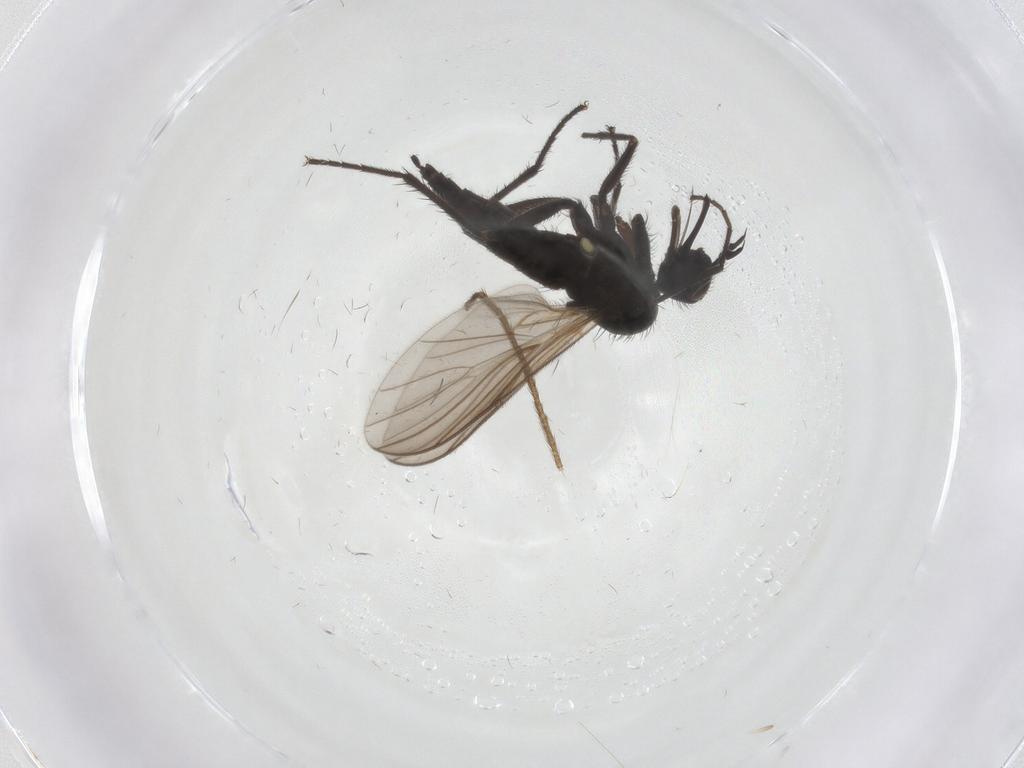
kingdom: Animalia
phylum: Arthropoda
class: Insecta
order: Diptera
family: Empididae
